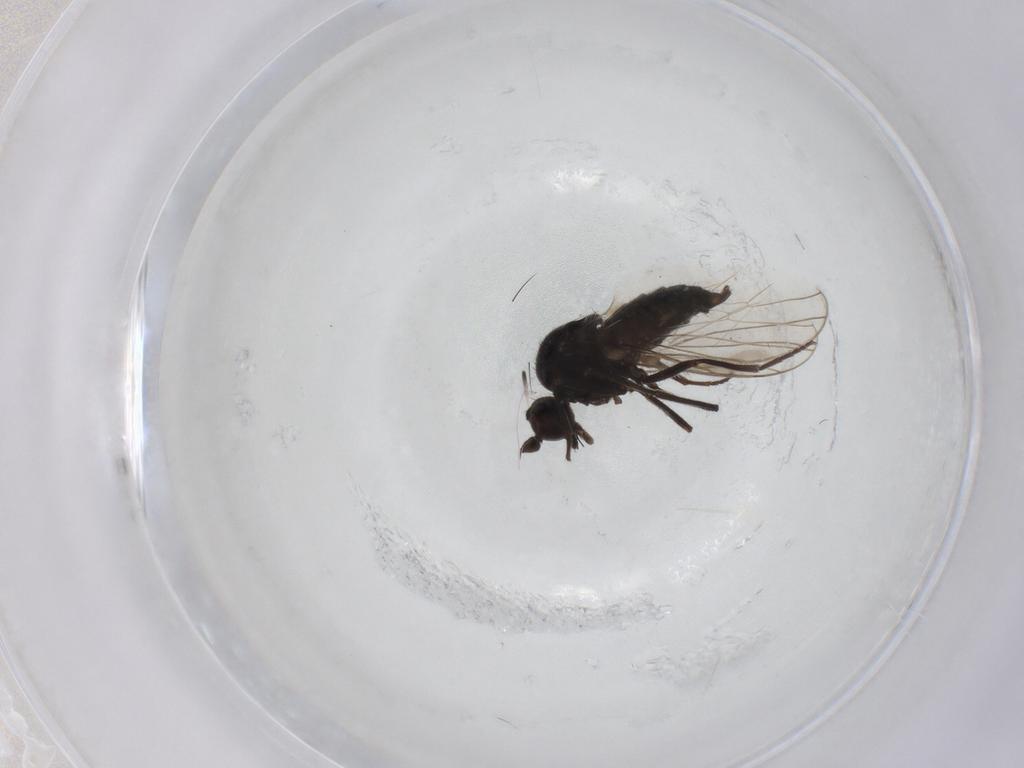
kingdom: Animalia
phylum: Arthropoda
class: Insecta
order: Diptera
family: Hybotidae
